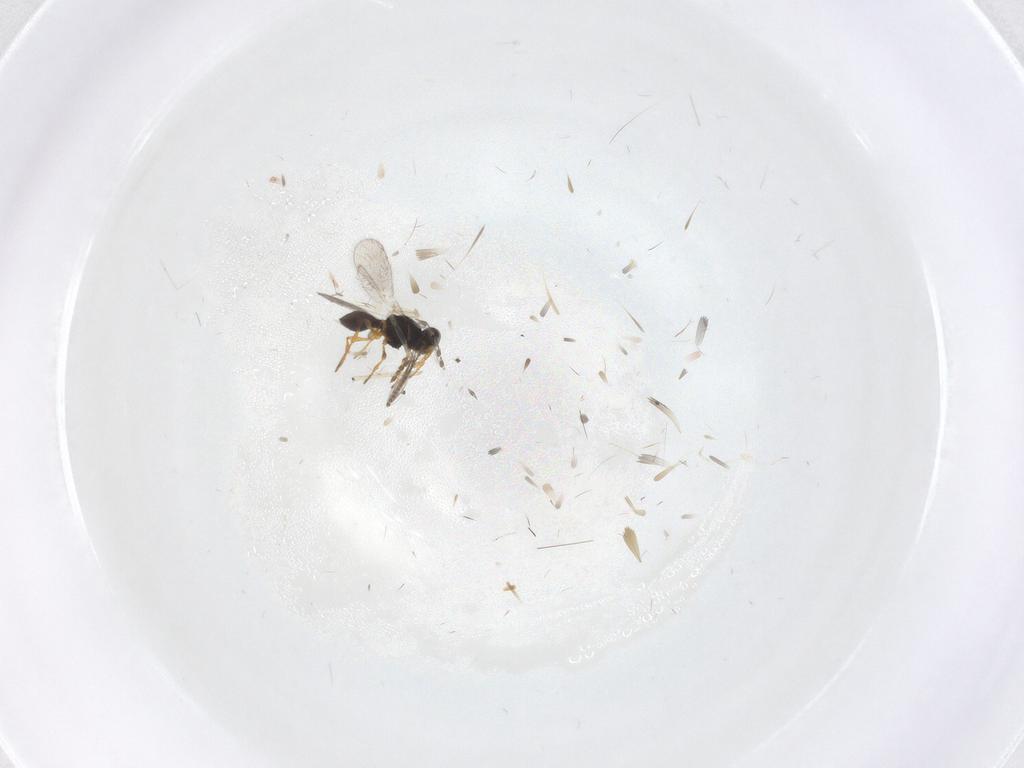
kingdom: Animalia
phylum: Arthropoda
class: Insecta
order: Hymenoptera
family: Platygastridae
